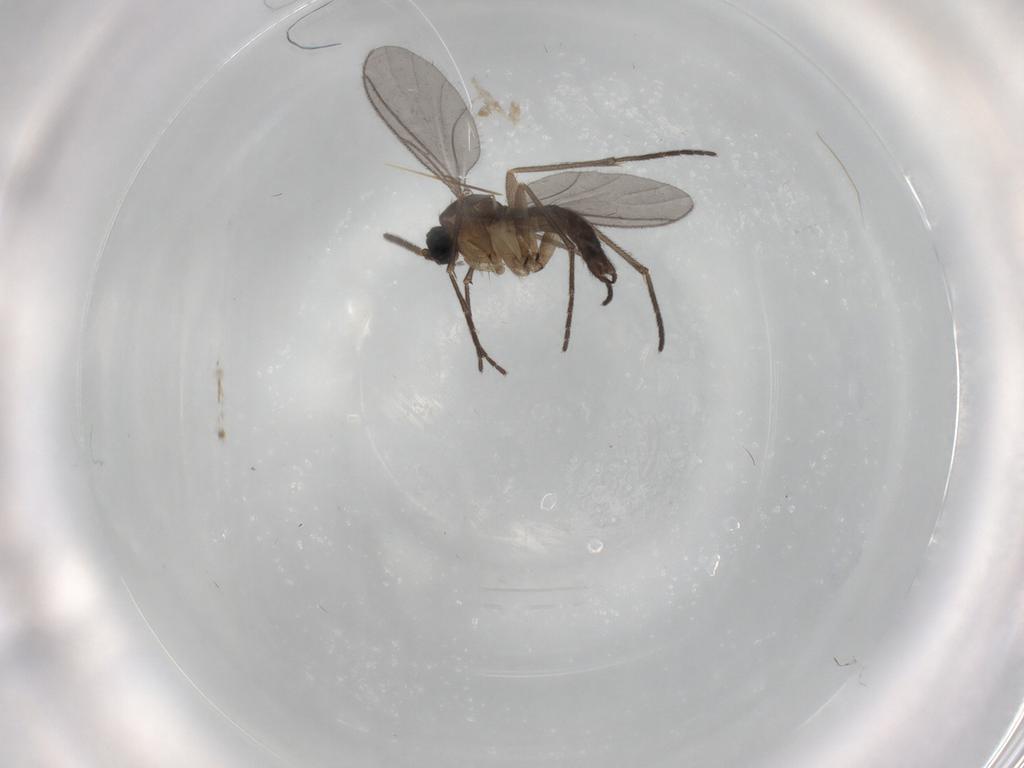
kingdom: Animalia
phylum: Arthropoda
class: Insecta
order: Diptera
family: Sciaridae
